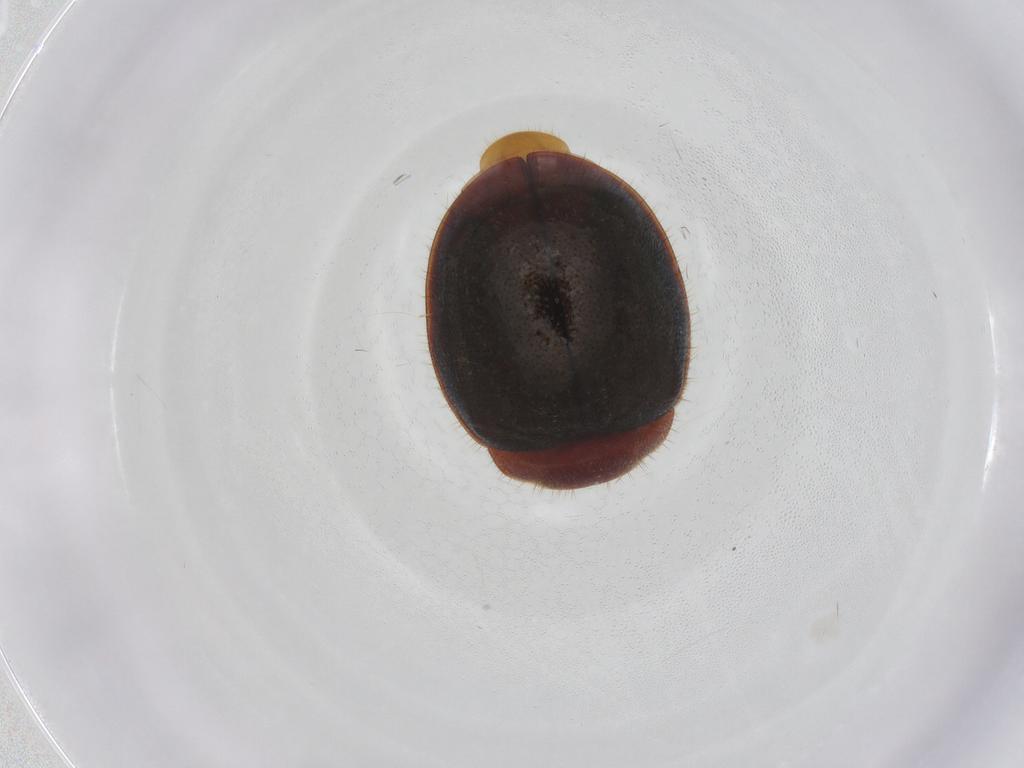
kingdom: Animalia
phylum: Arthropoda
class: Insecta
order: Coleoptera
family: Coccinellidae
